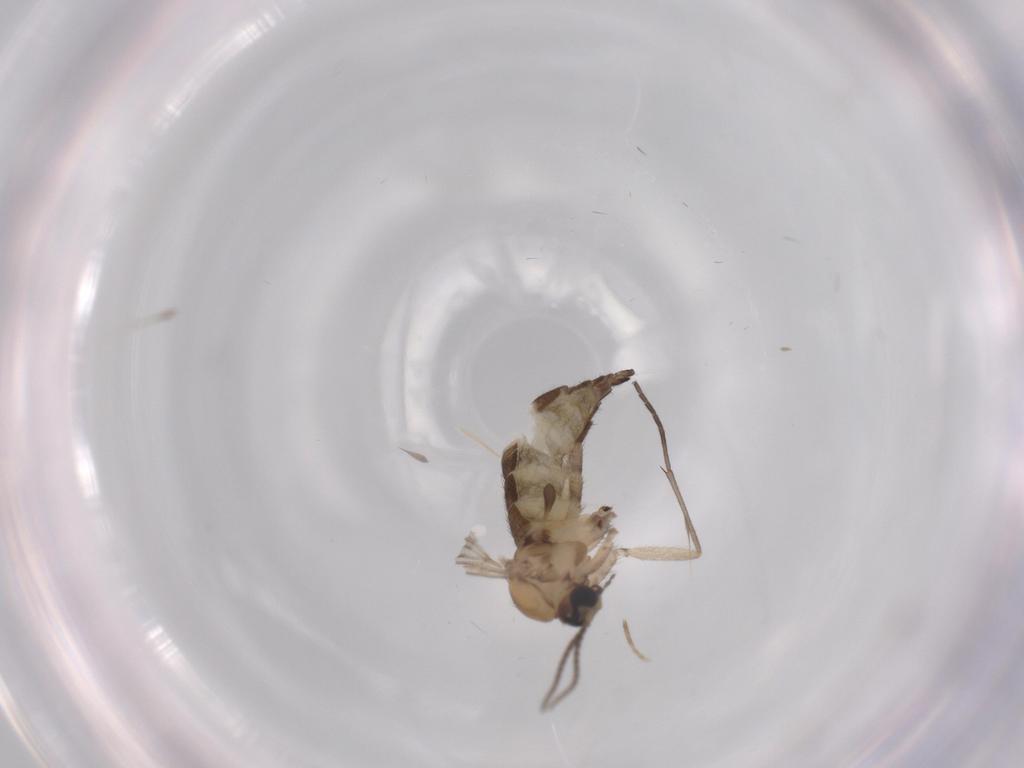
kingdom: Animalia
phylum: Arthropoda
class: Insecta
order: Diptera
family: Sciaridae
